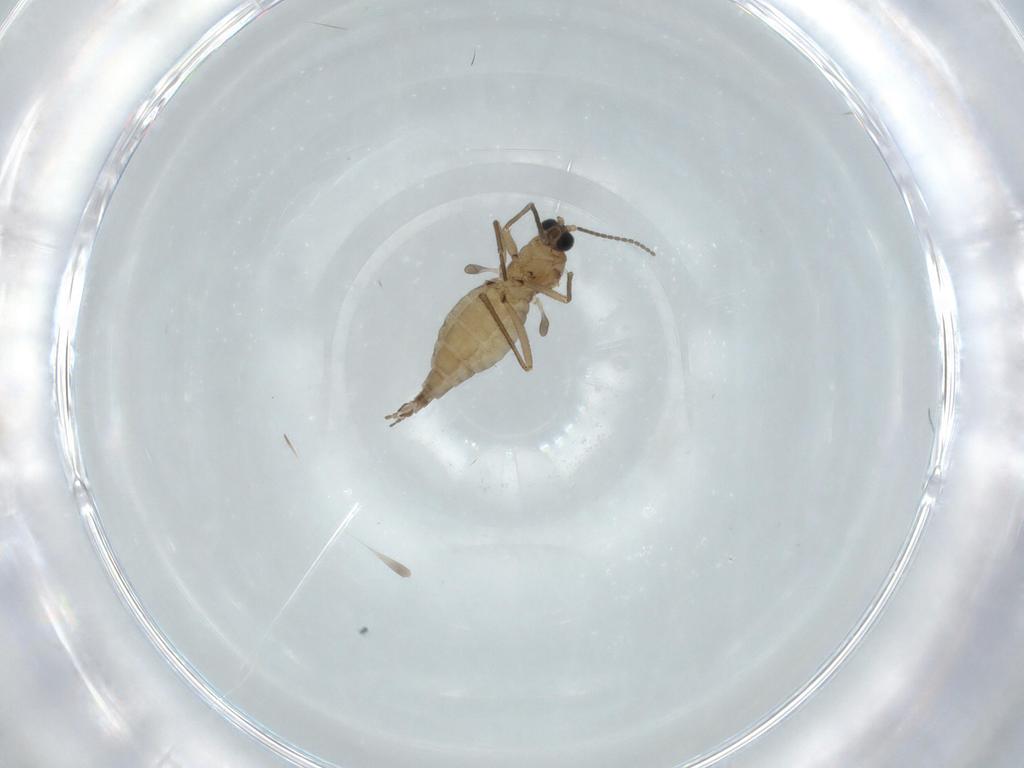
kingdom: Animalia
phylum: Arthropoda
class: Insecta
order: Diptera
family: Sciaridae
